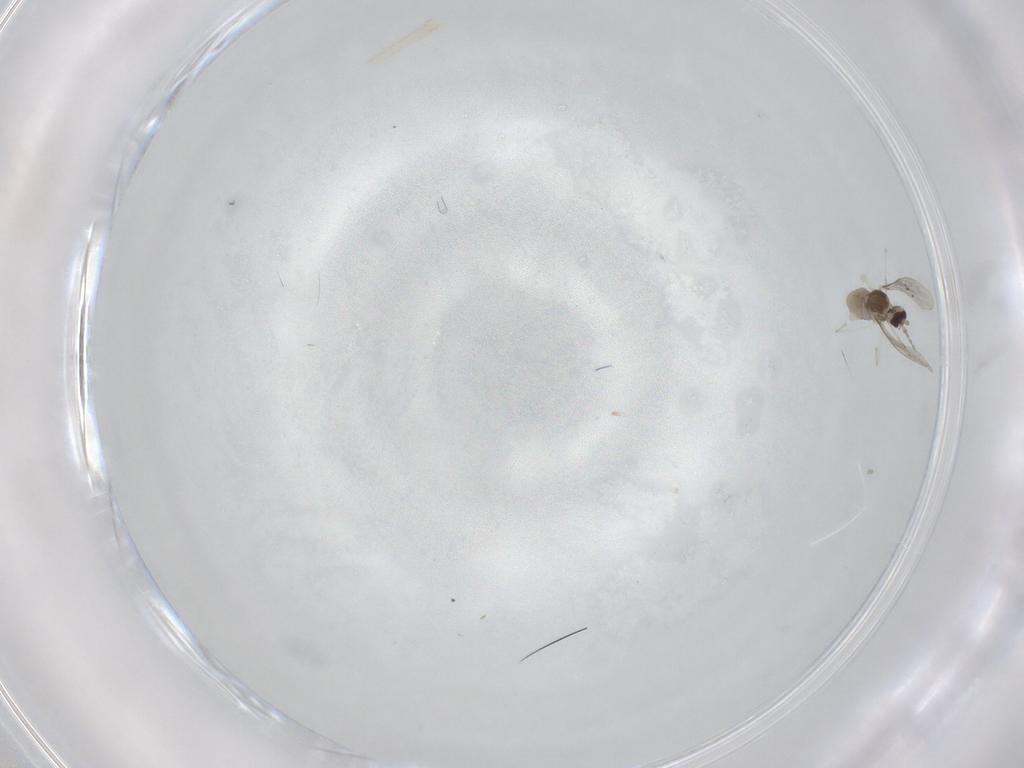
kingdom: Animalia
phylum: Arthropoda
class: Insecta
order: Diptera
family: Cecidomyiidae
